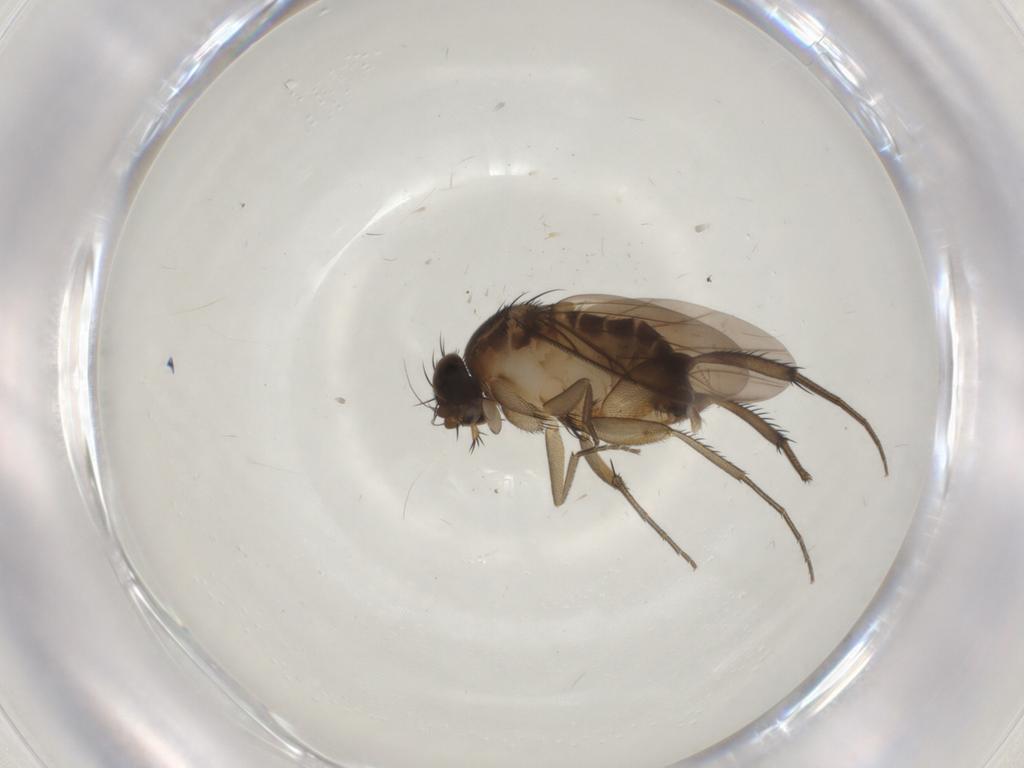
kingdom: Animalia
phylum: Arthropoda
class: Insecta
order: Diptera
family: Phoridae
